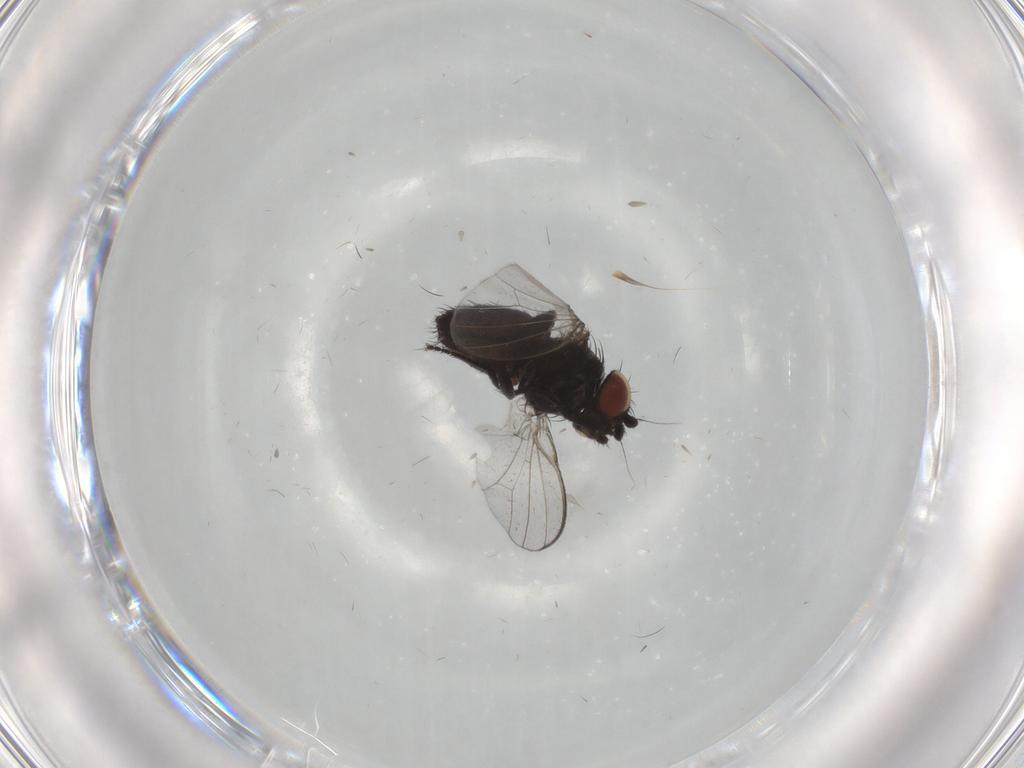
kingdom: Animalia
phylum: Arthropoda
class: Insecta
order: Diptera
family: Milichiidae
